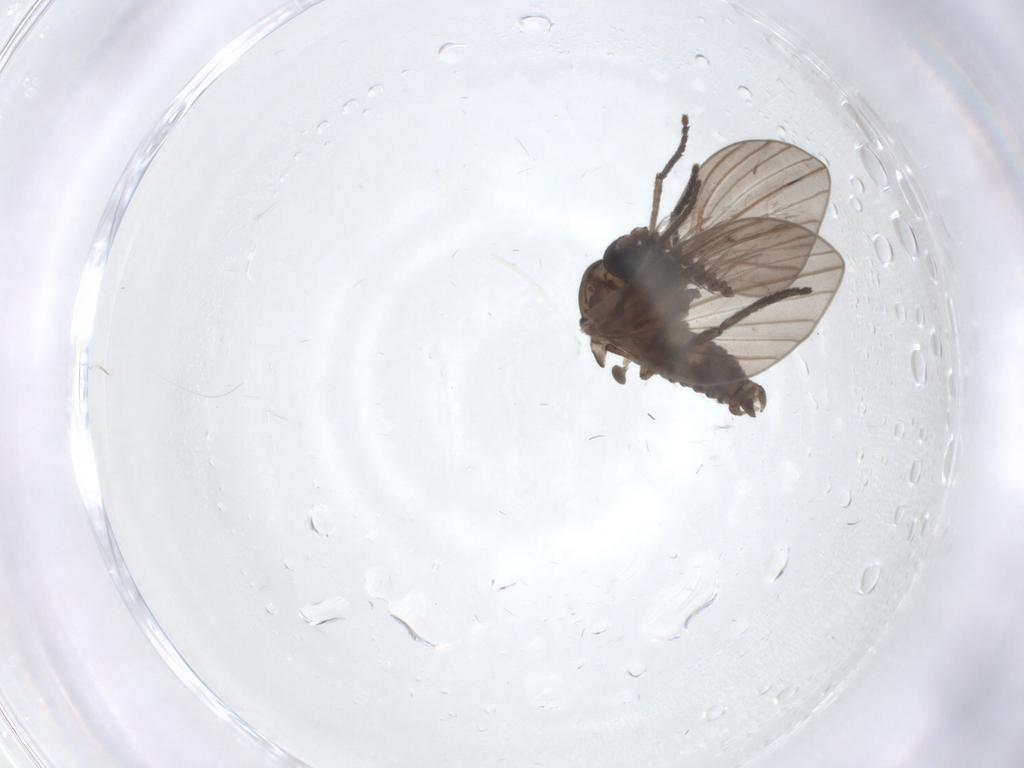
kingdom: Animalia
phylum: Arthropoda
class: Insecta
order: Diptera
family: Psychodidae
